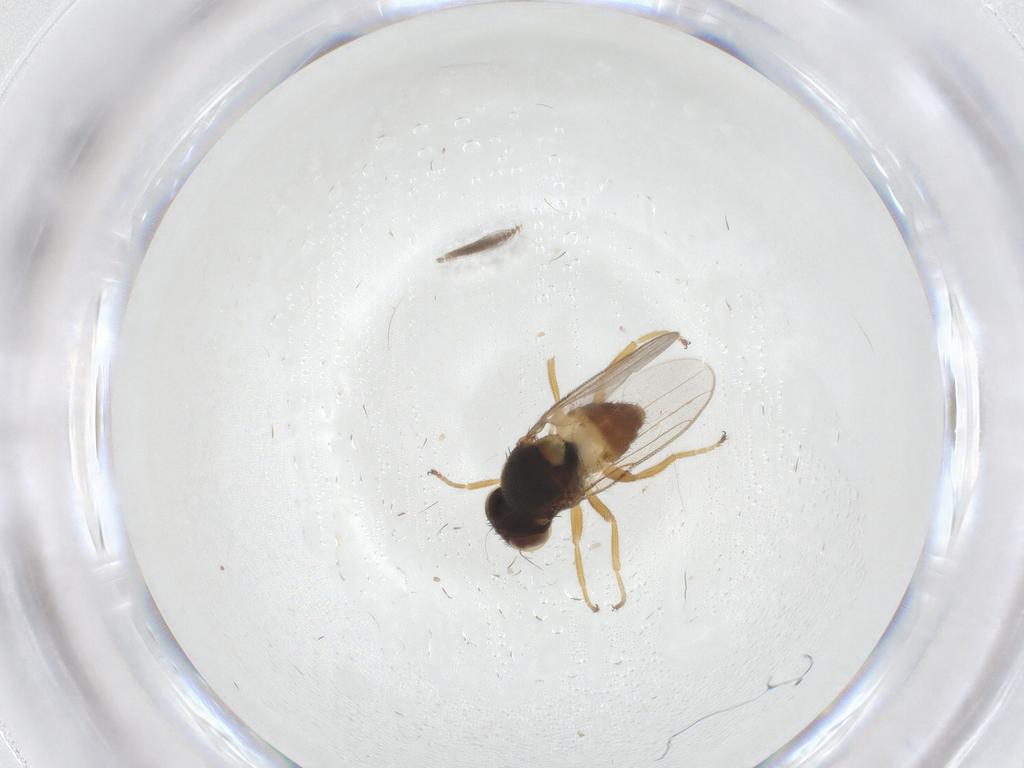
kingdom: Animalia
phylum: Arthropoda
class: Insecta
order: Diptera
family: Chloropidae
